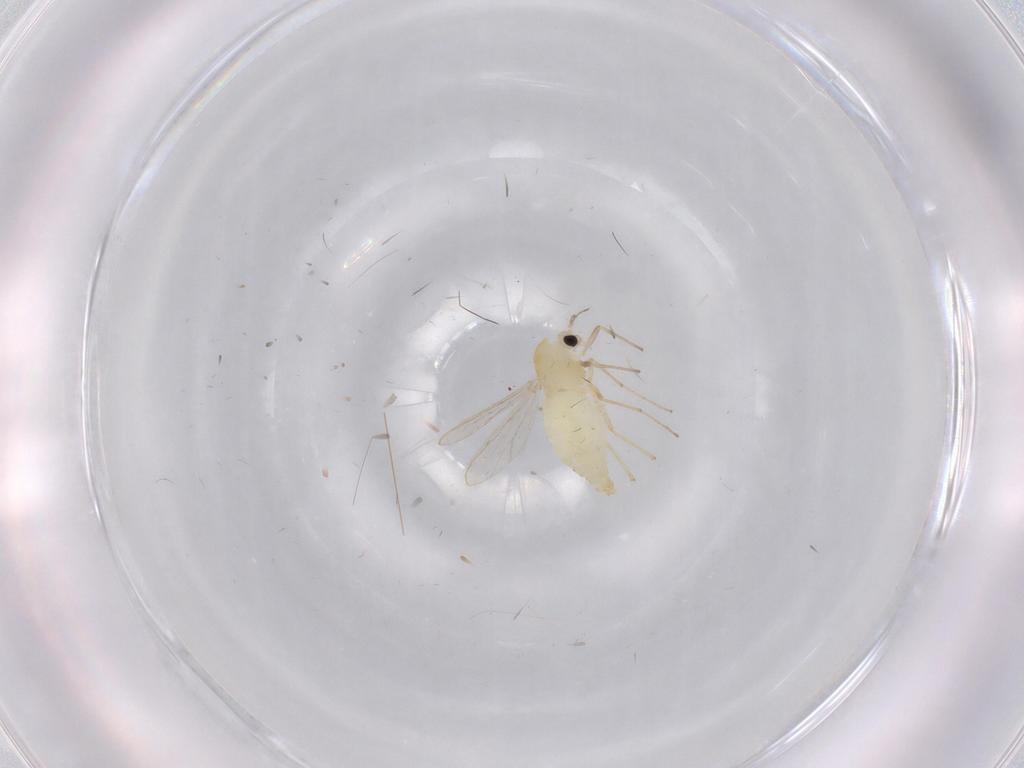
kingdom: Animalia
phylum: Arthropoda
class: Insecta
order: Diptera
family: Chironomidae
